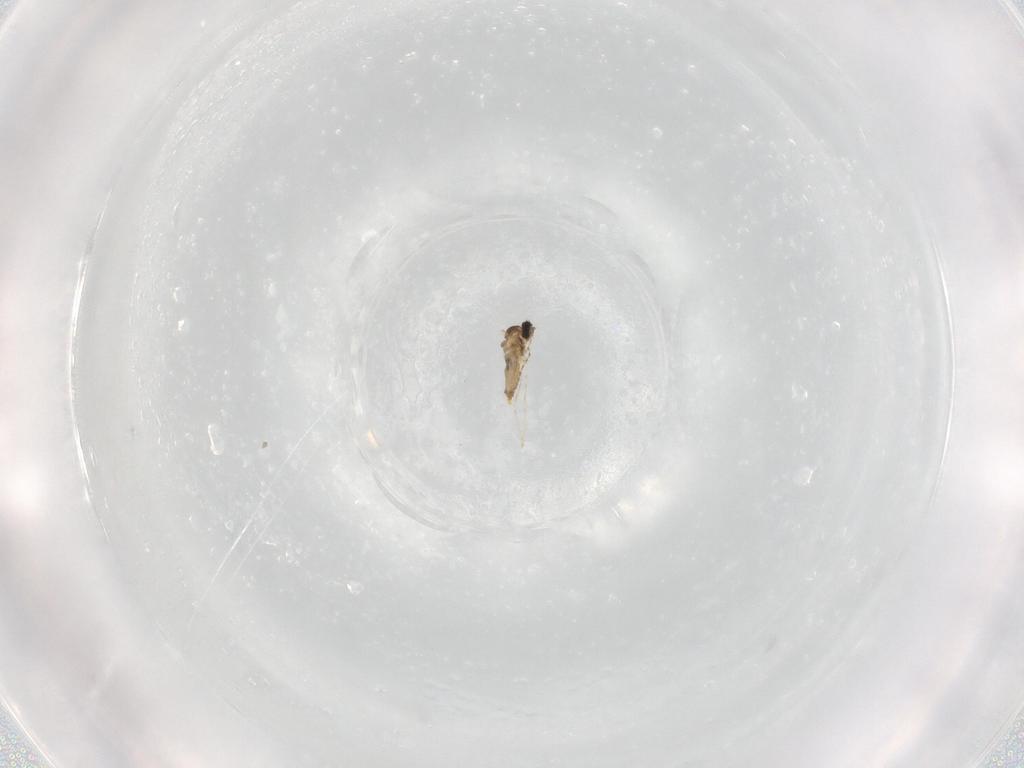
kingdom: Animalia
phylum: Arthropoda
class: Insecta
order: Diptera
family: Cecidomyiidae
